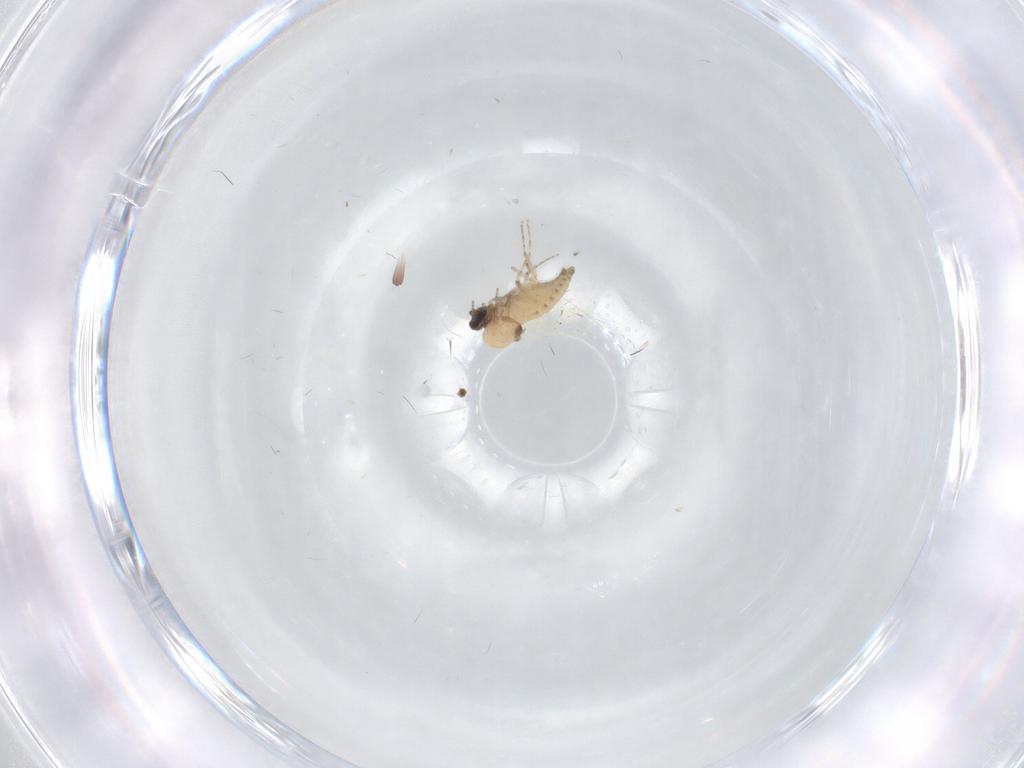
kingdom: Animalia
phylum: Arthropoda
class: Insecta
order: Diptera
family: Ceratopogonidae
